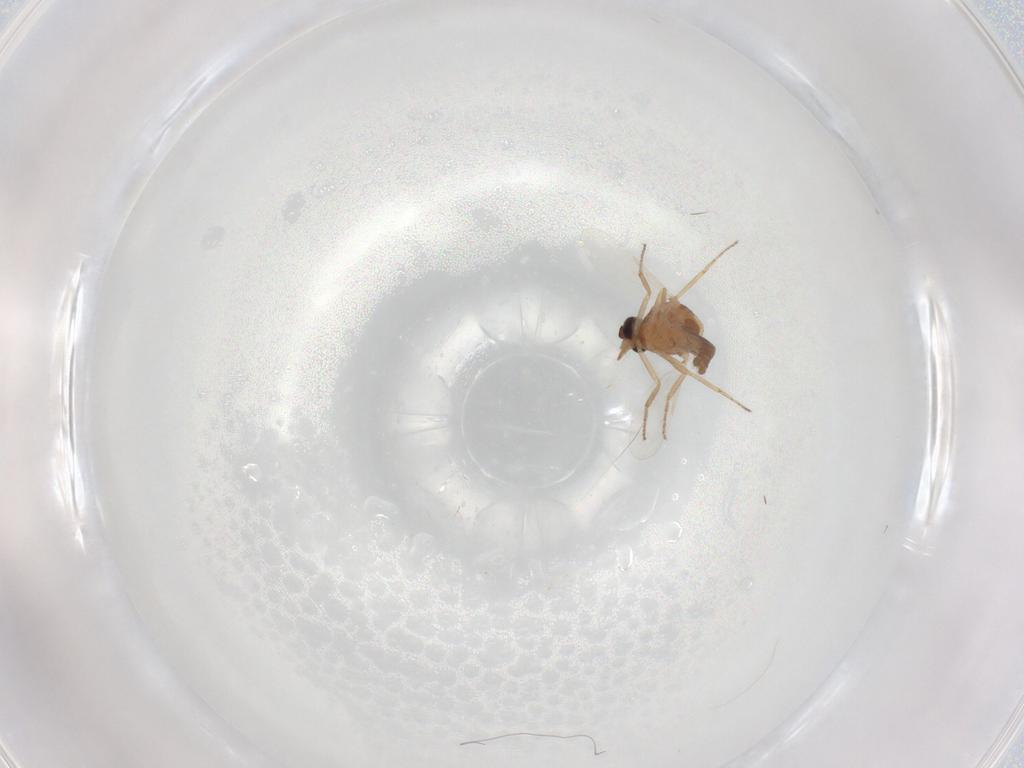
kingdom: Animalia
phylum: Arthropoda
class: Insecta
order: Diptera
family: Ceratopogonidae
